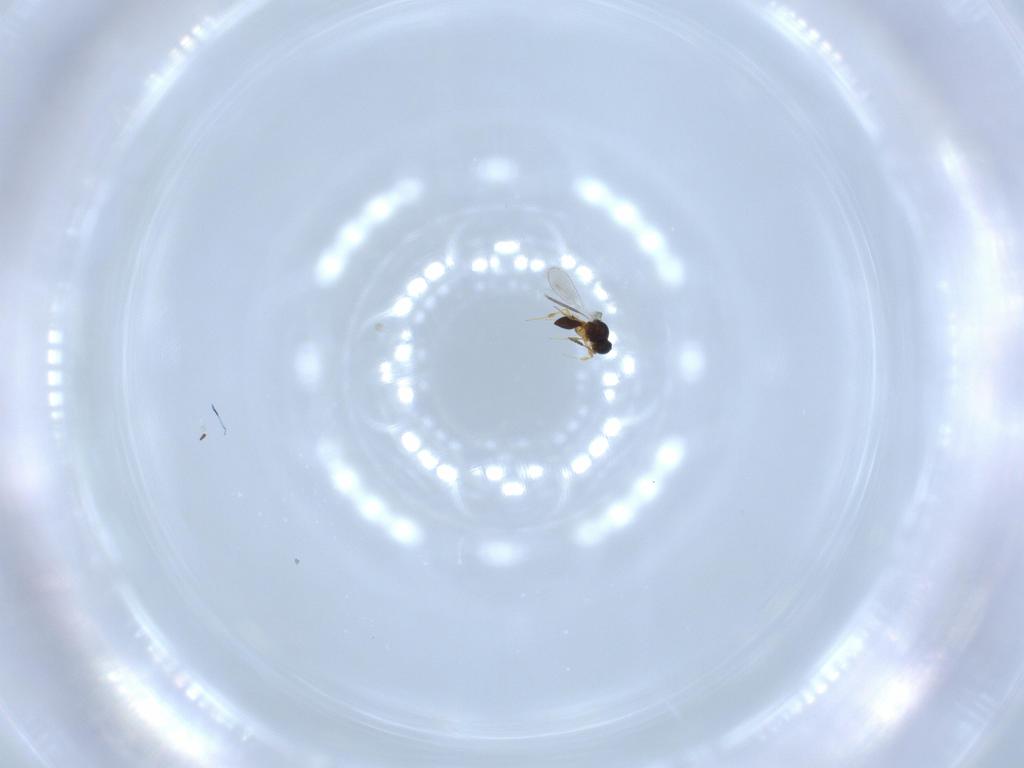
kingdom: Animalia
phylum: Arthropoda
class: Insecta
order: Hymenoptera
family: Platygastridae
